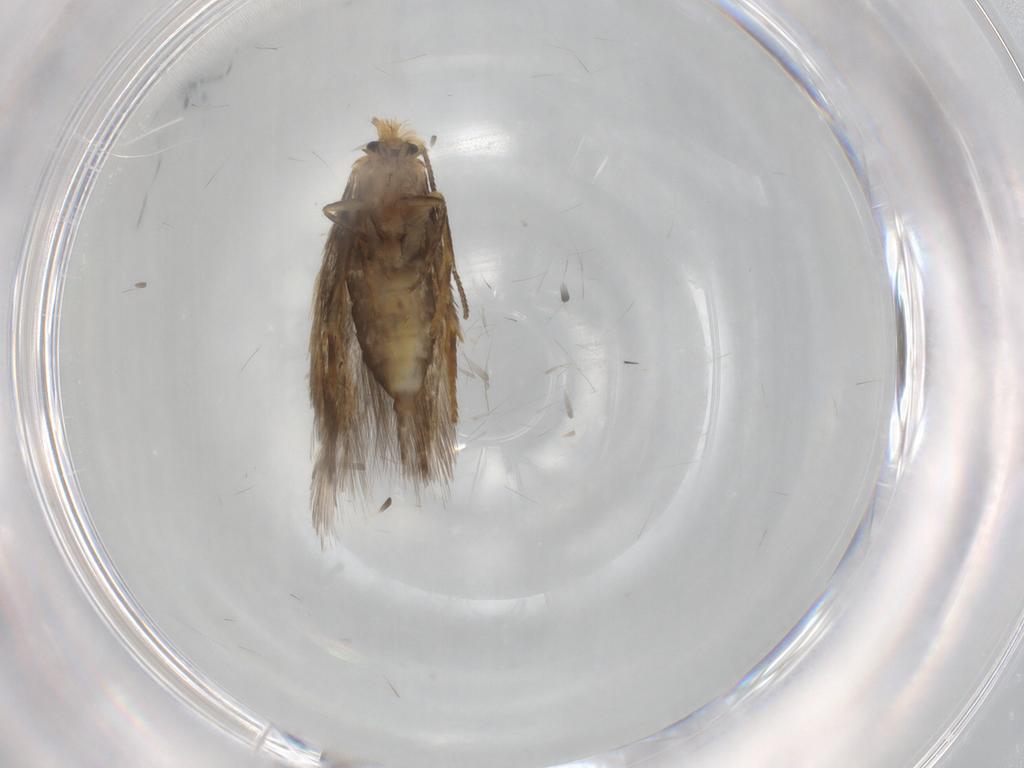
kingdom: Animalia
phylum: Arthropoda
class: Insecta
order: Lepidoptera
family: Nepticulidae
